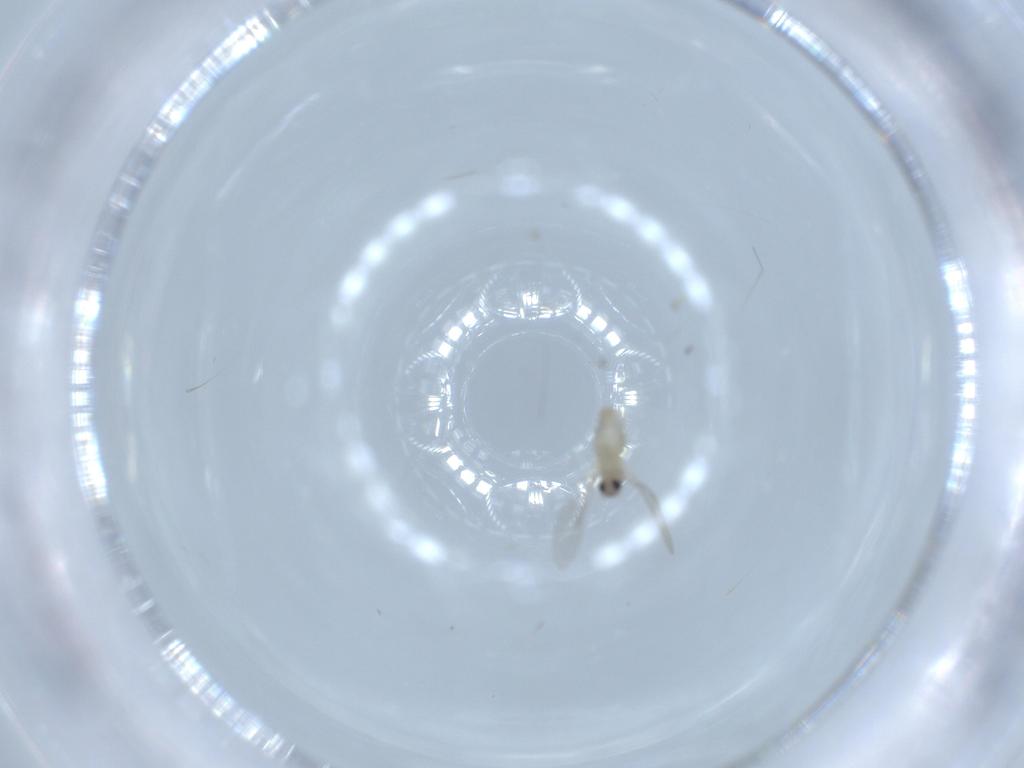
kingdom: Animalia
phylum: Arthropoda
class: Insecta
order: Diptera
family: Cecidomyiidae
